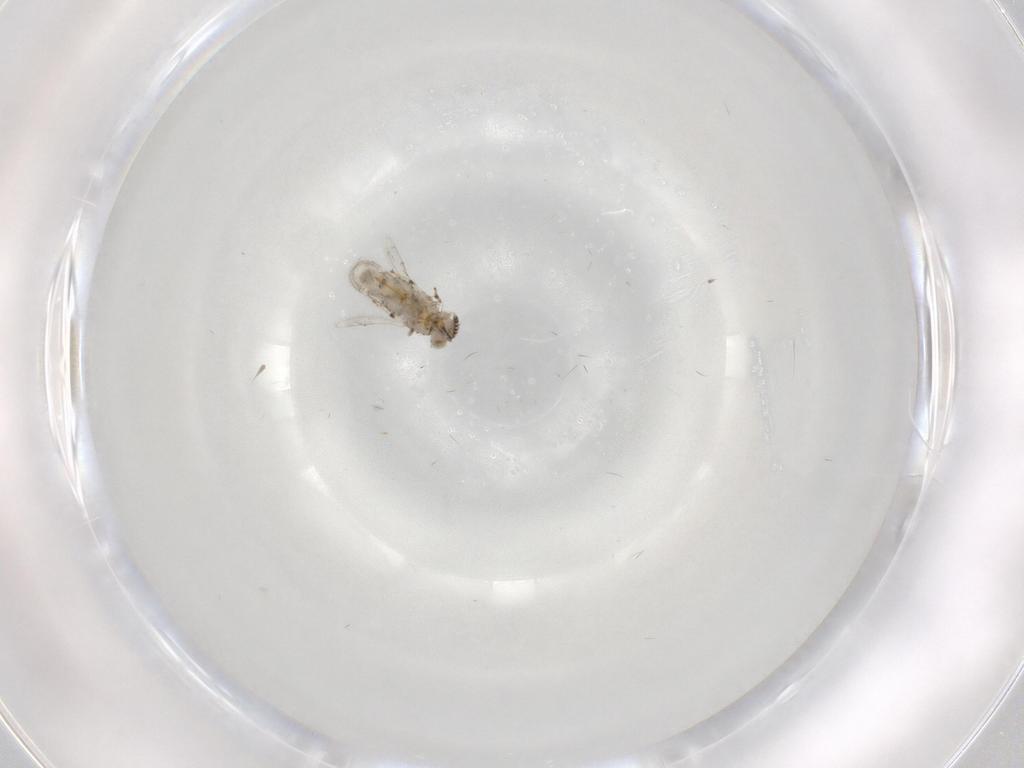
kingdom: Animalia
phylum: Arthropoda
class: Insecta
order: Hymenoptera
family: Aphelinidae
